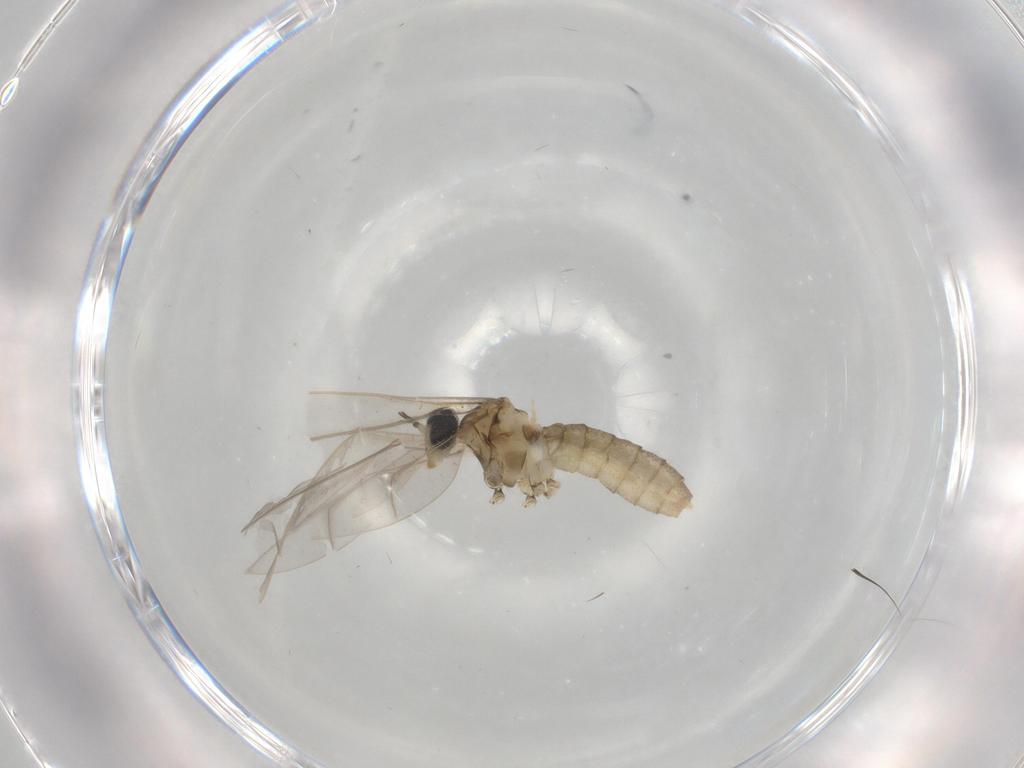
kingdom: Animalia
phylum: Arthropoda
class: Insecta
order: Diptera
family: Cecidomyiidae
